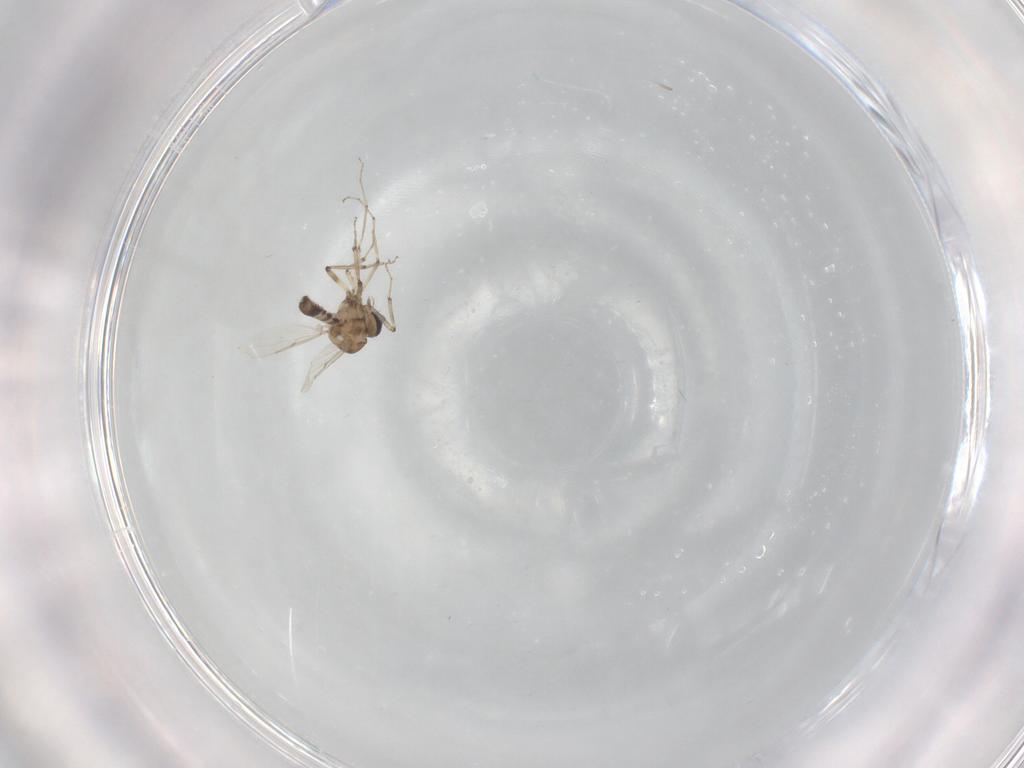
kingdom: Animalia
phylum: Arthropoda
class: Insecta
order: Diptera
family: Ceratopogonidae
